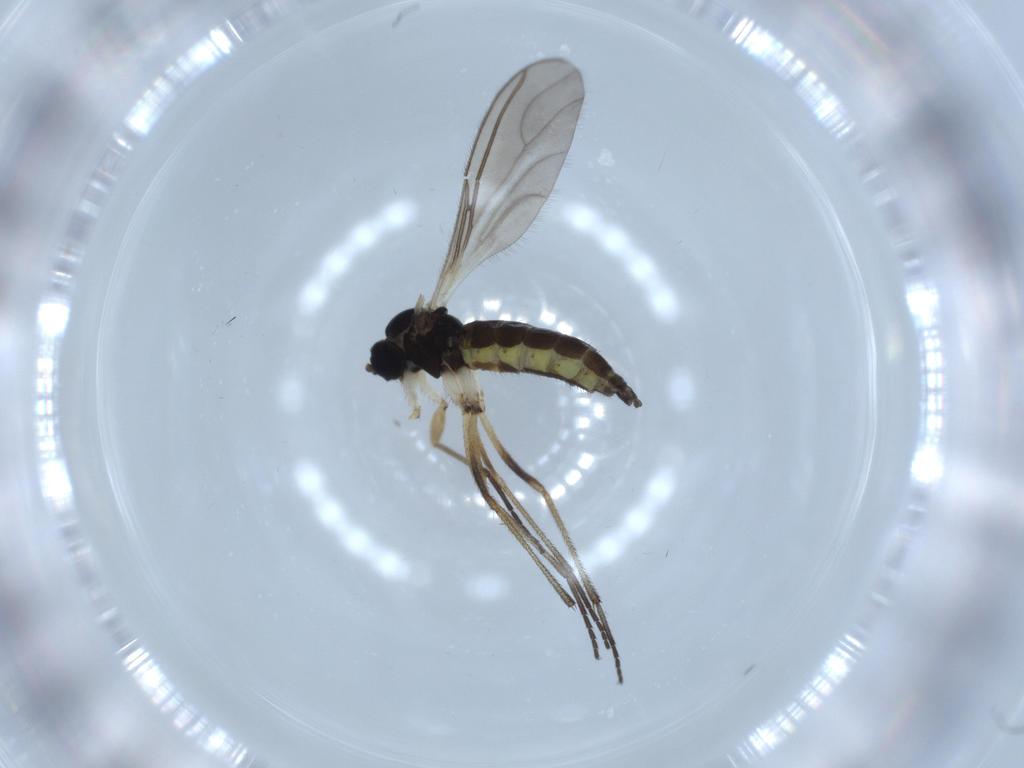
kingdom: Animalia
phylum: Arthropoda
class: Insecta
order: Diptera
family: Sciaridae
